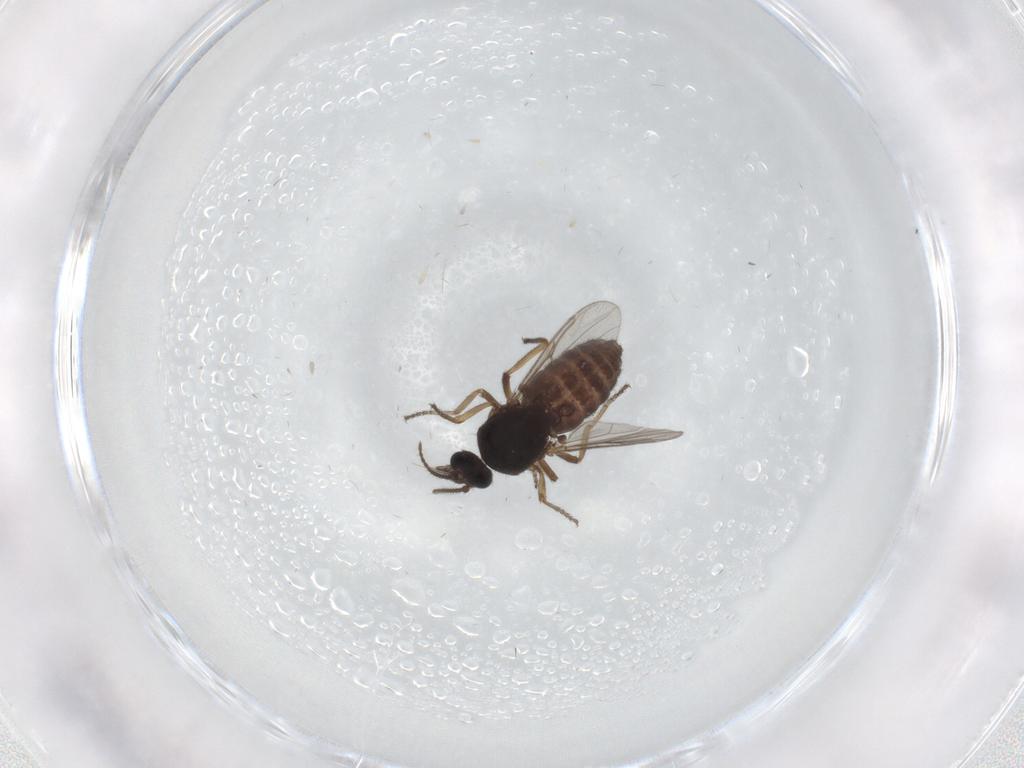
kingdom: Animalia
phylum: Arthropoda
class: Insecta
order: Diptera
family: Ceratopogonidae
